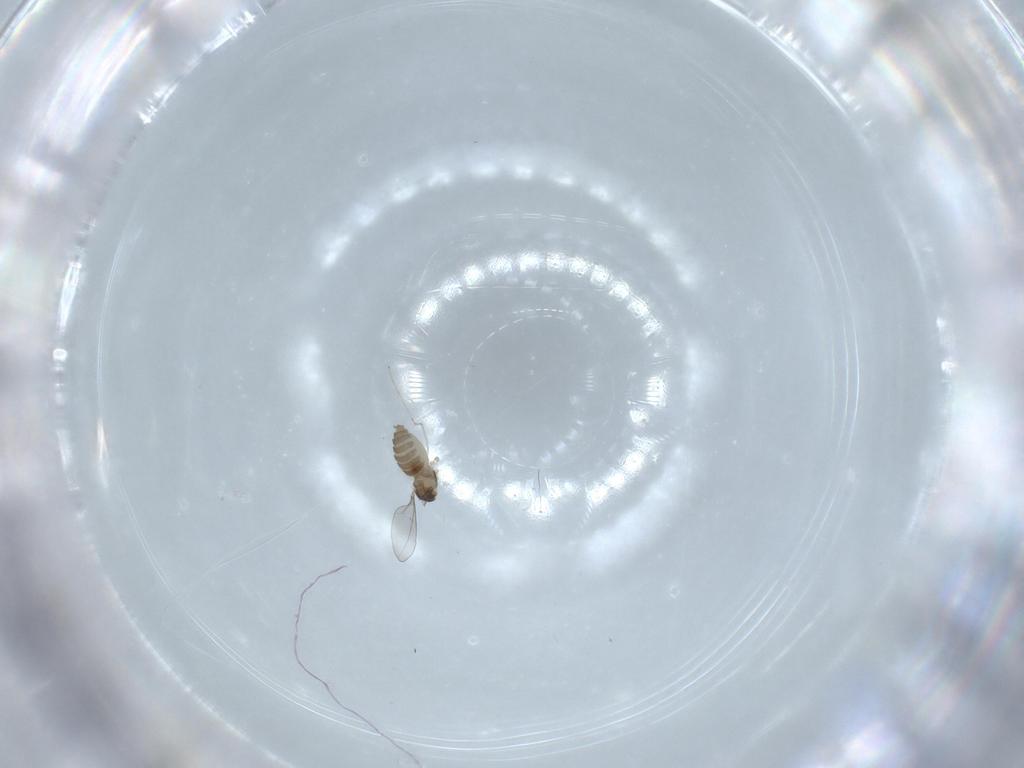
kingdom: Animalia
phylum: Arthropoda
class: Insecta
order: Diptera
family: Cecidomyiidae
